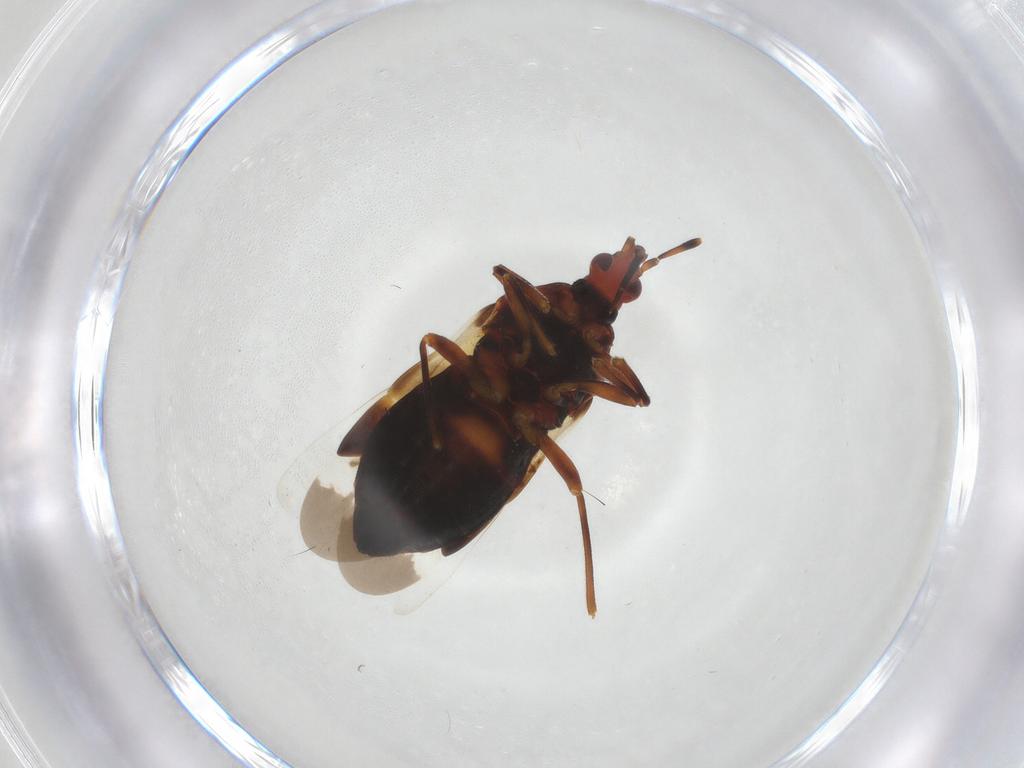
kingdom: Animalia
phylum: Arthropoda
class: Insecta
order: Hemiptera
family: Anthocoridae
